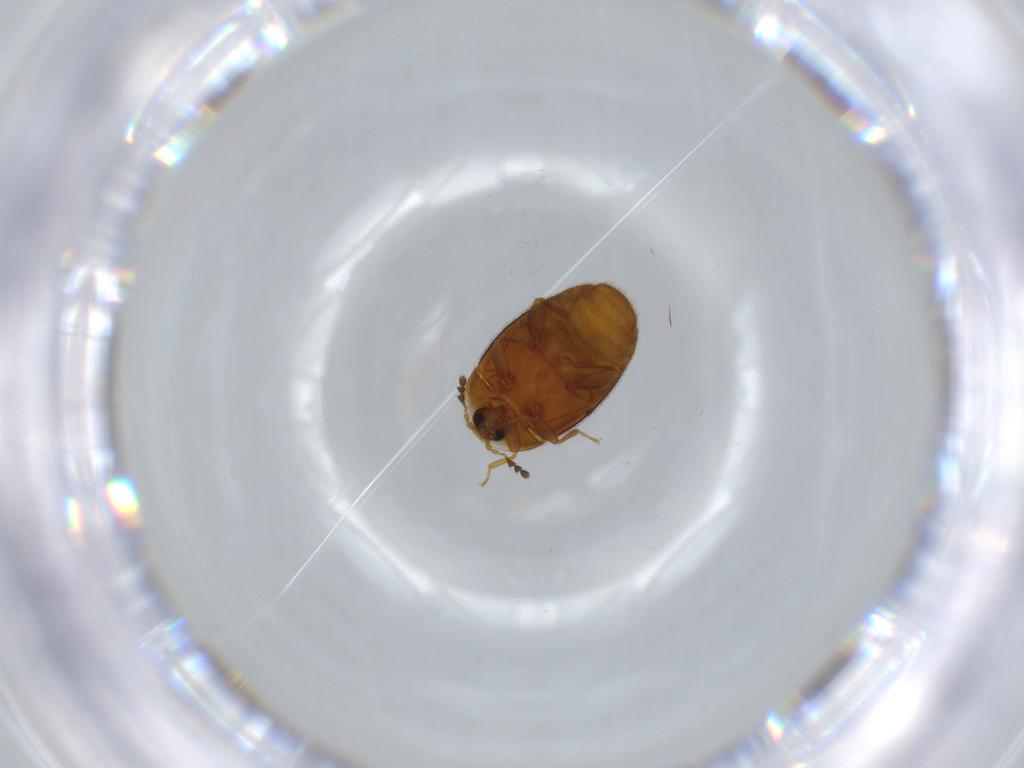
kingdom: Animalia
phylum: Arthropoda
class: Insecta
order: Coleoptera
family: Corylophidae
